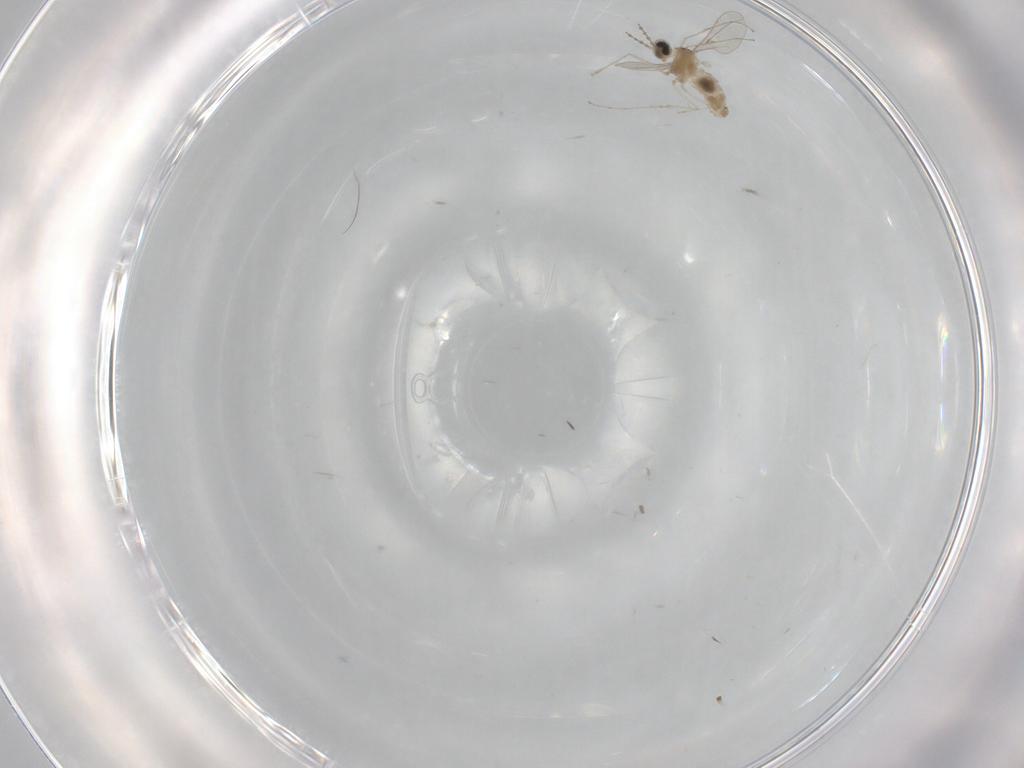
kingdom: Animalia
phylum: Arthropoda
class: Insecta
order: Diptera
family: Cecidomyiidae
